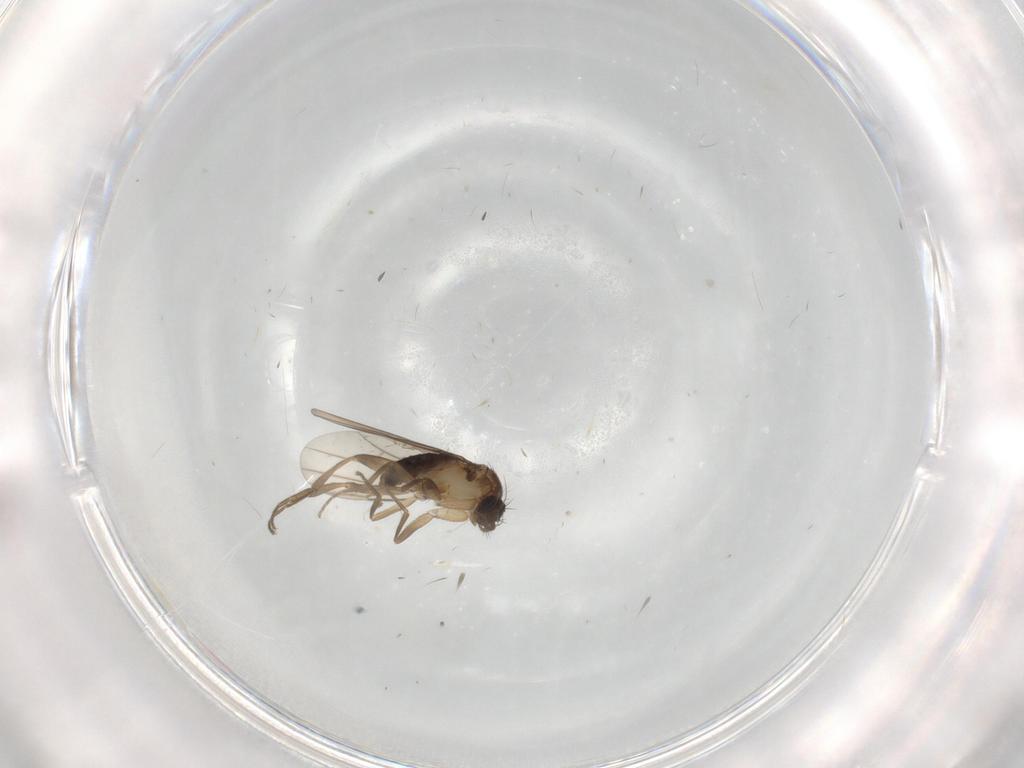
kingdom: Animalia
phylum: Arthropoda
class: Insecta
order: Diptera
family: Phoridae
